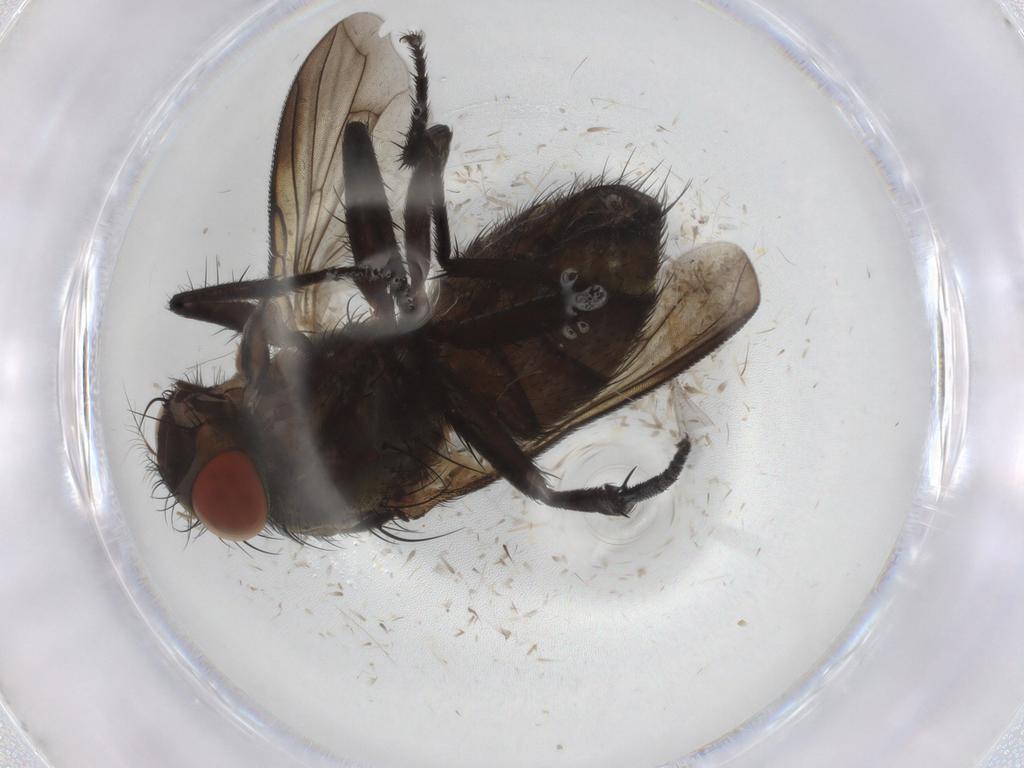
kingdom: Animalia
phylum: Arthropoda
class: Insecta
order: Diptera
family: Sarcophagidae
